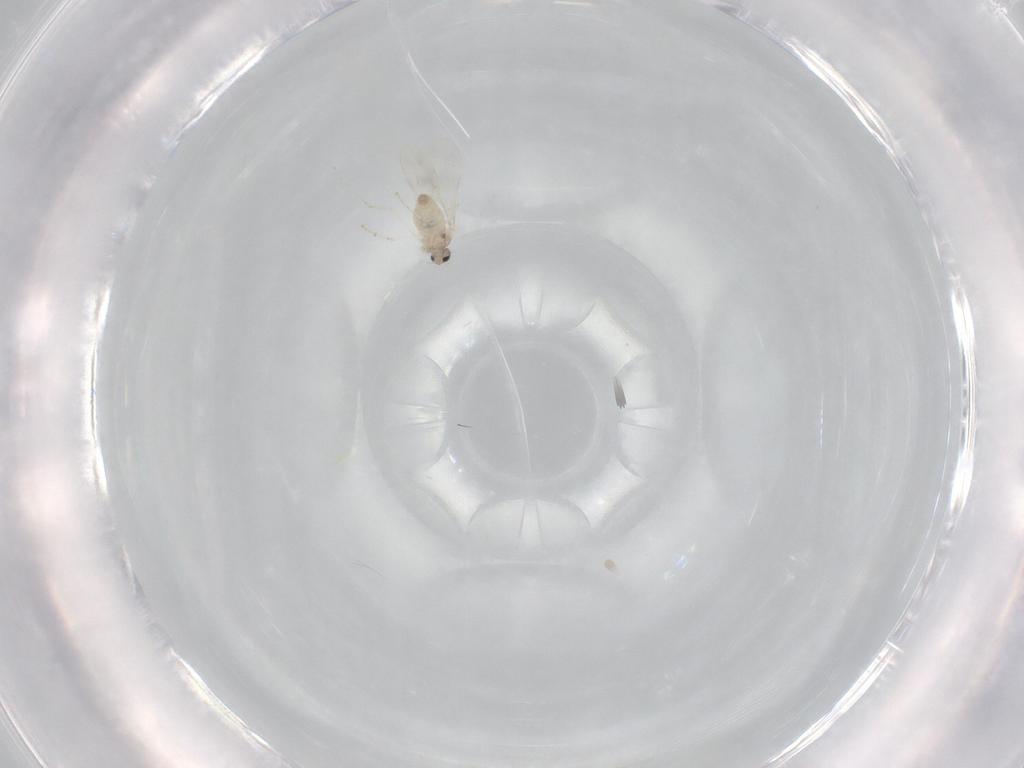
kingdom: Animalia
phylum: Arthropoda
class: Insecta
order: Diptera
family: Cecidomyiidae
